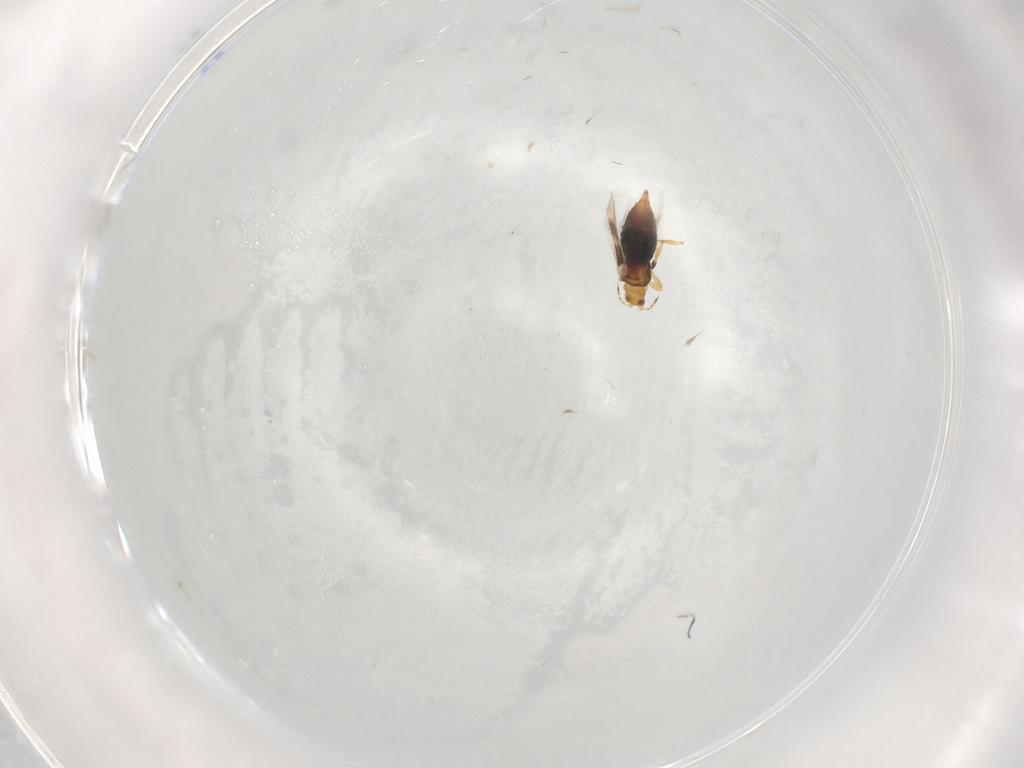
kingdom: Animalia
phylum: Arthropoda
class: Insecta
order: Thysanoptera
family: Thripidae
